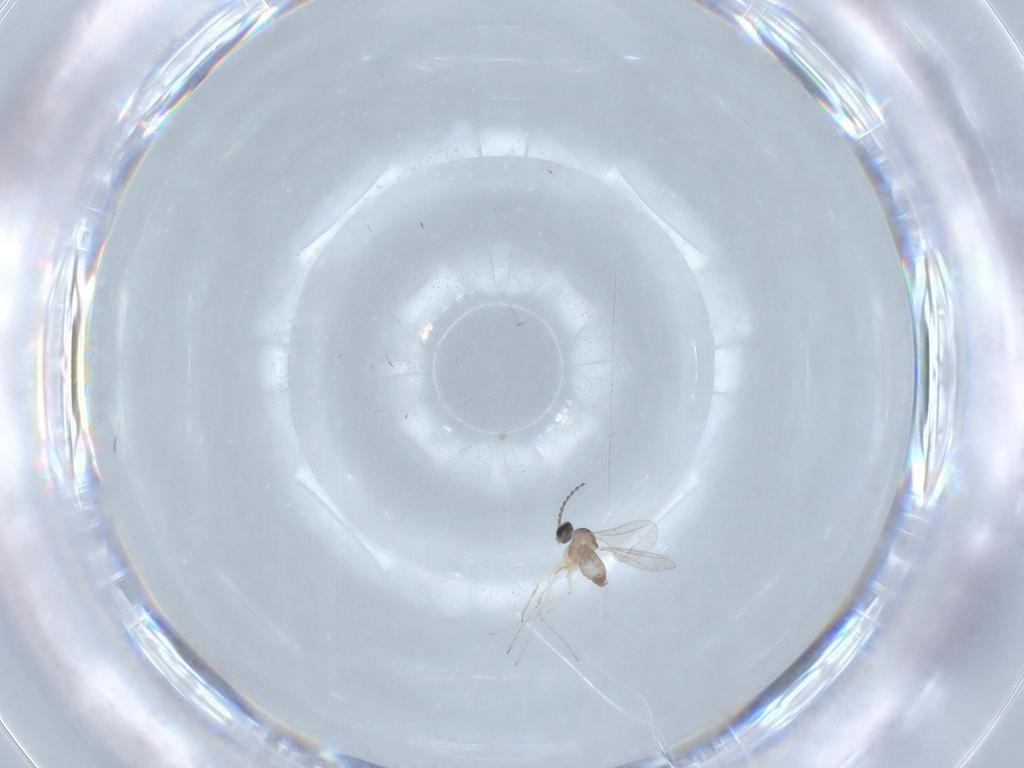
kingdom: Animalia
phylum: Arthropoda
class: Insecta
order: Diptera
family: Cecidomyiidae
